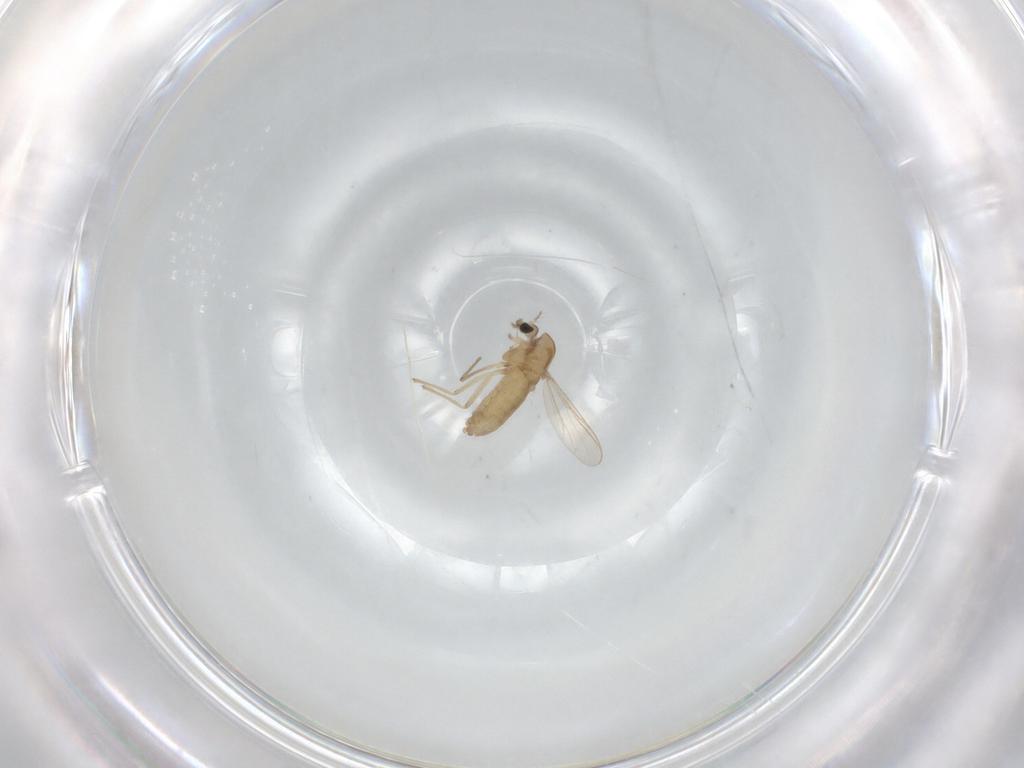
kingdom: Animalia
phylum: Arthropoda
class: Insecta
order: Diptera
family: Chironomidae
